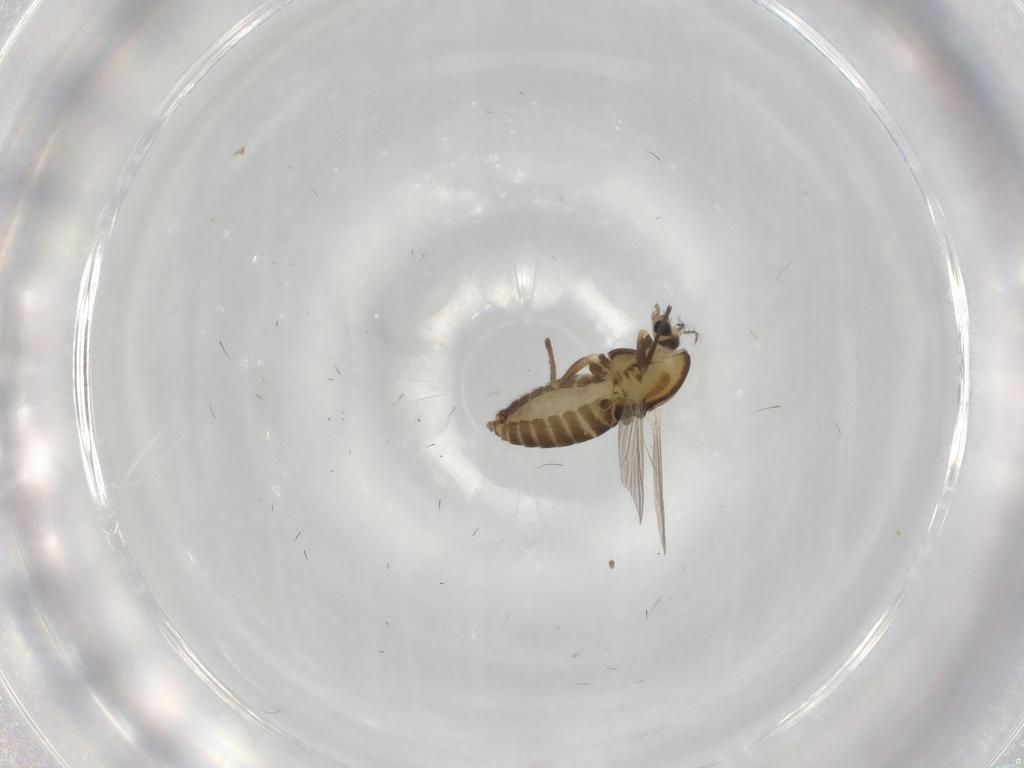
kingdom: Animalia
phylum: Arthropoda
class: Insecta
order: Diptera
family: Chironomidae
